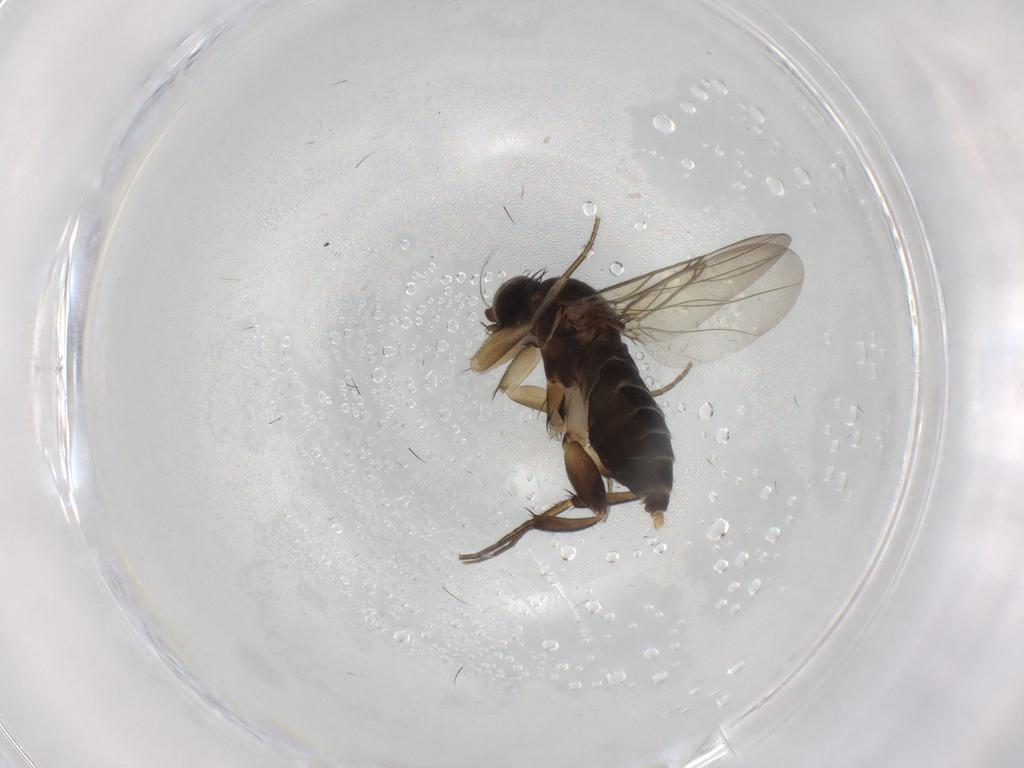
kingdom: Animalia
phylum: Arthropoda
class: Insecta
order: Diptera
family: Phoridae
